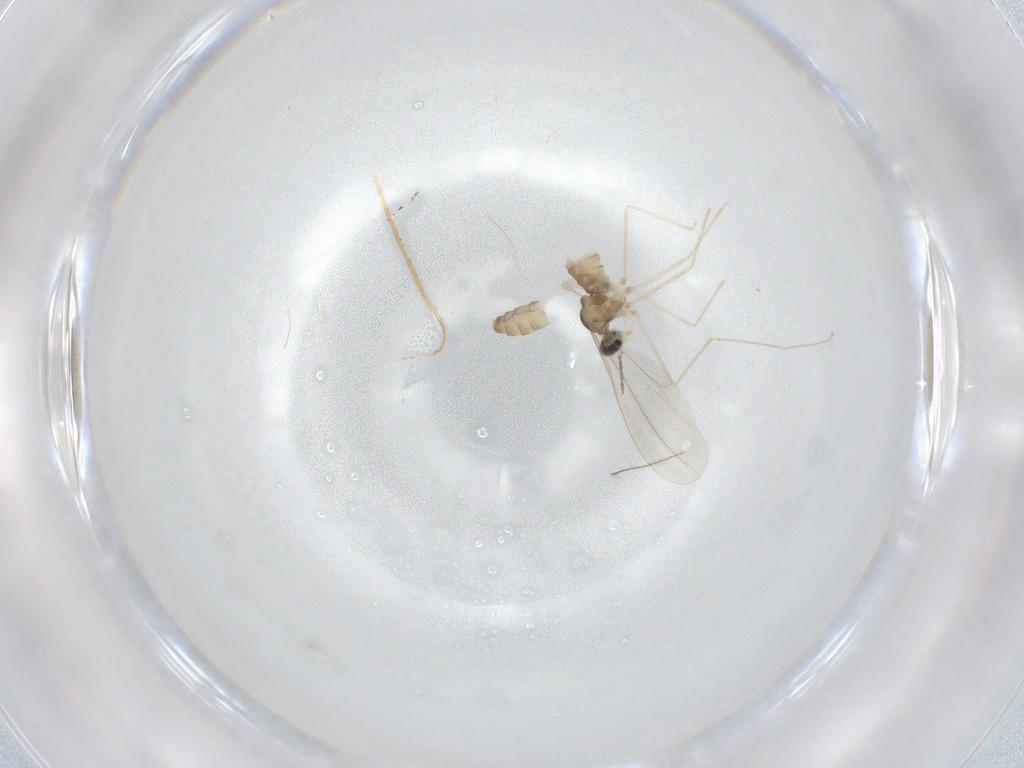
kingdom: Animalia
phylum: Arthropoda
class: Insecta
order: Diptera
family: Cecidomyiidae
